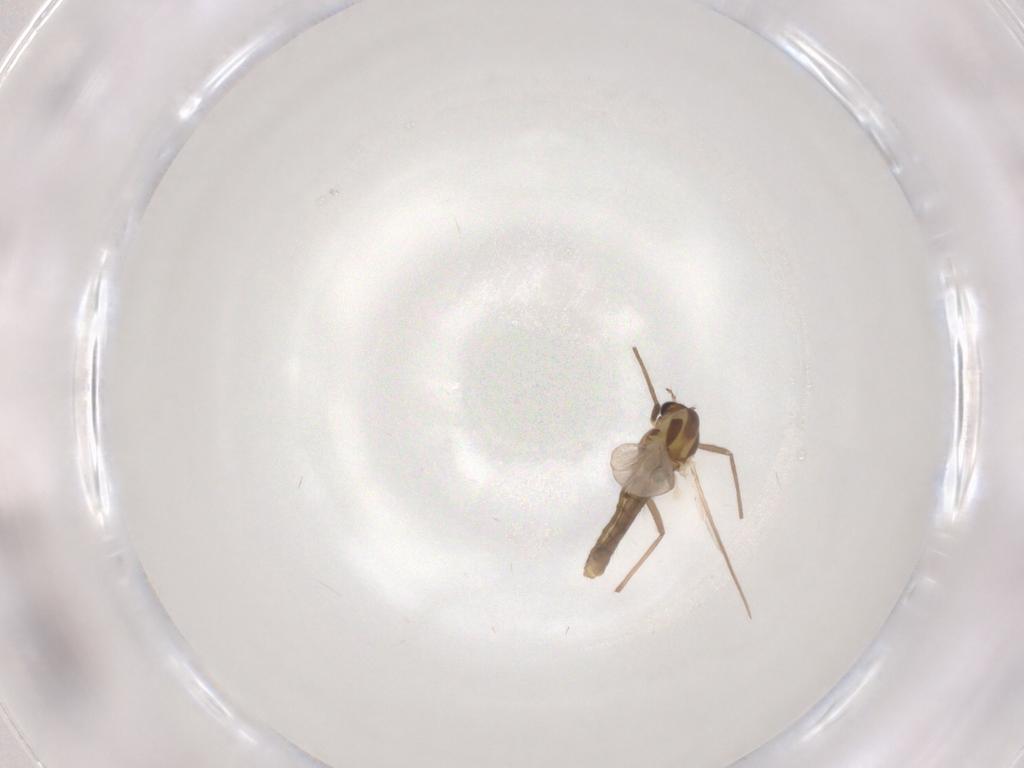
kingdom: Animalia
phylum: Arthropoda
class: Insecta
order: Diptera
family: Chironomidae
